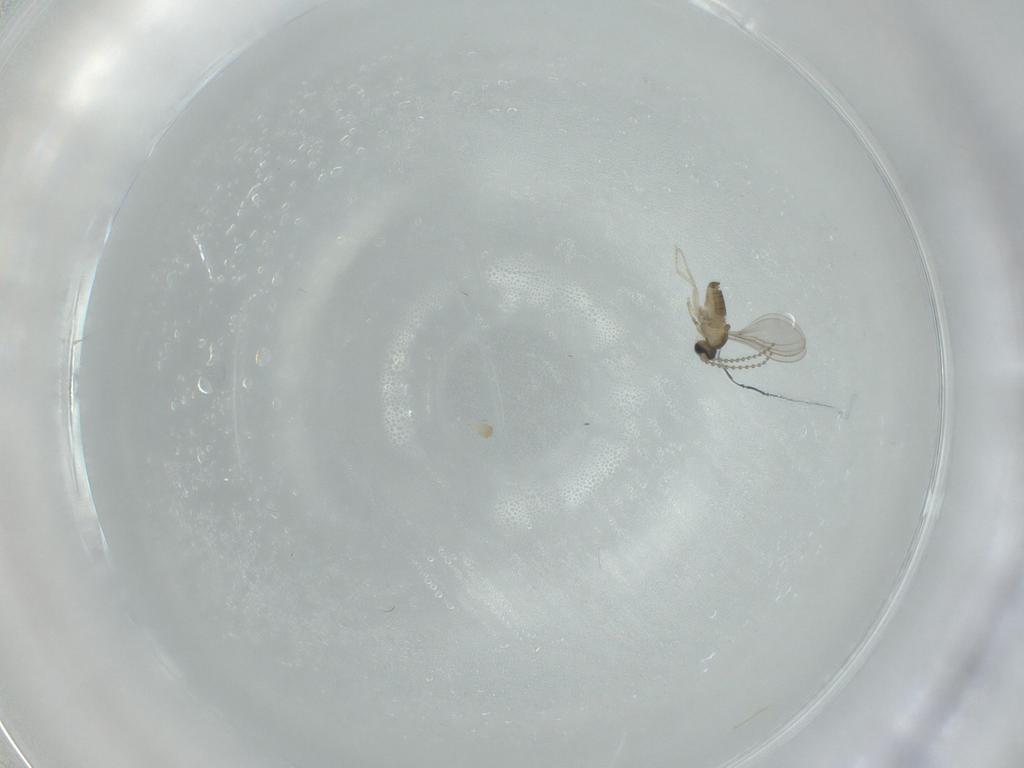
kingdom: Animalia
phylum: Arthropoda
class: Insecta
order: Diptera
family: Cecidomyiidae
